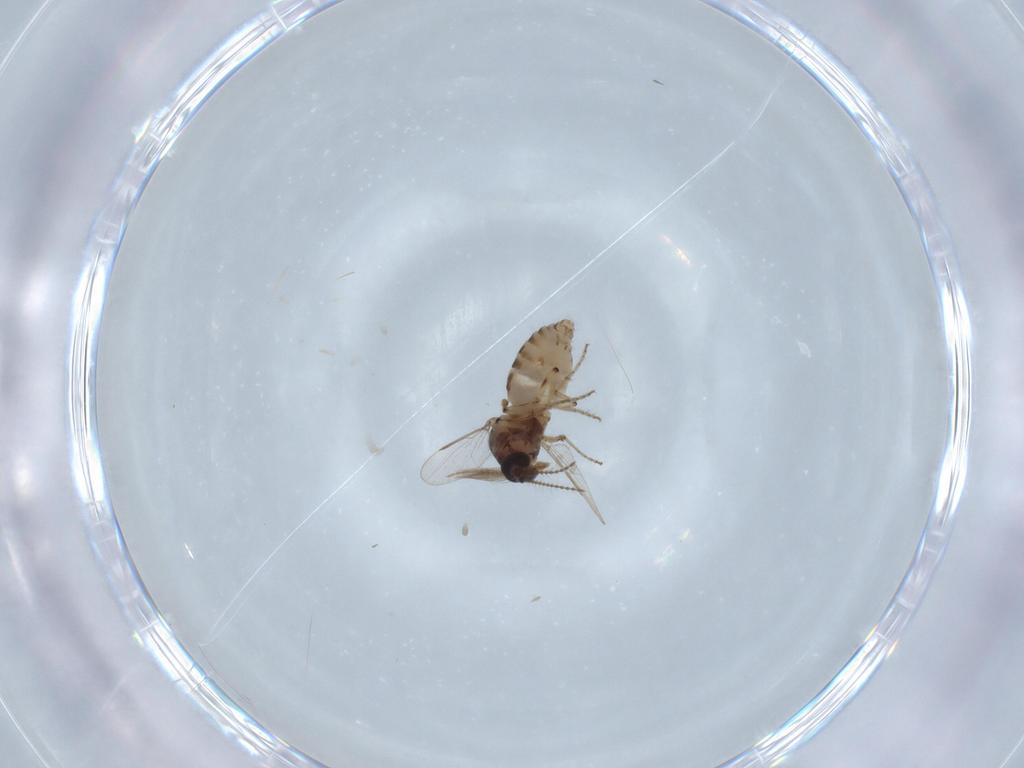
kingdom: Animalia
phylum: Arthropoda
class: Insecta
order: Diptera
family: Ceratopogonidae
